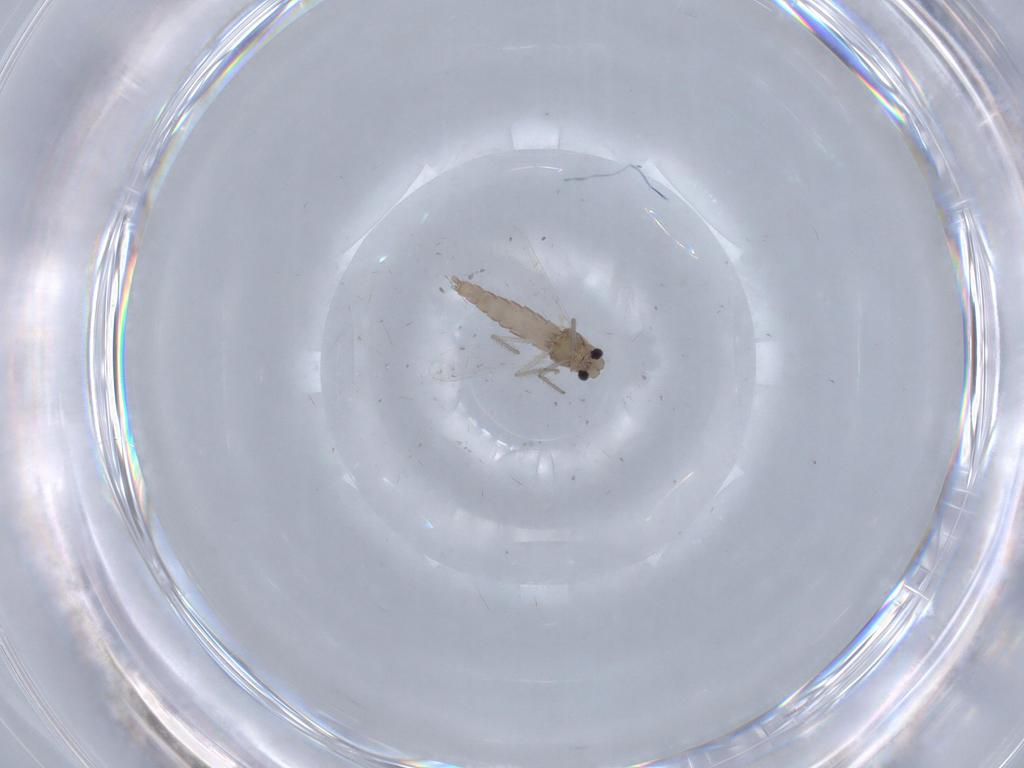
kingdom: Animalia
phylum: Arthropoda
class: Insecta
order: Diptera
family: Chironomidae
